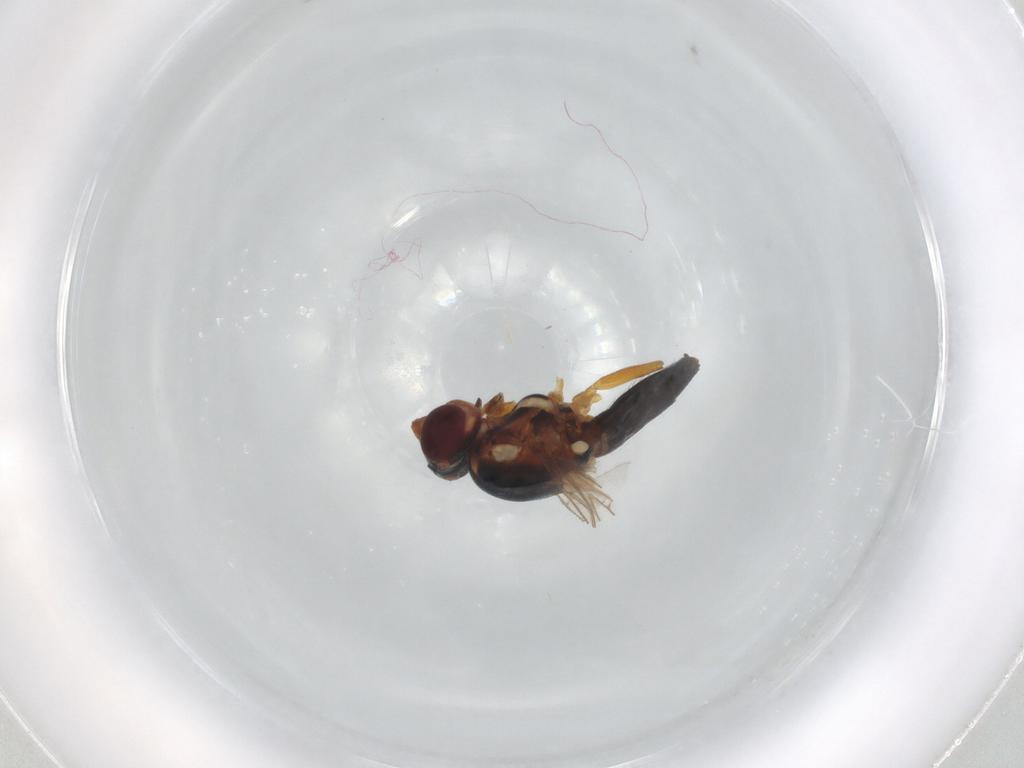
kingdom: Animalia
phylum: Arthropoda
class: Insecta
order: Diptera
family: Chloropidae
